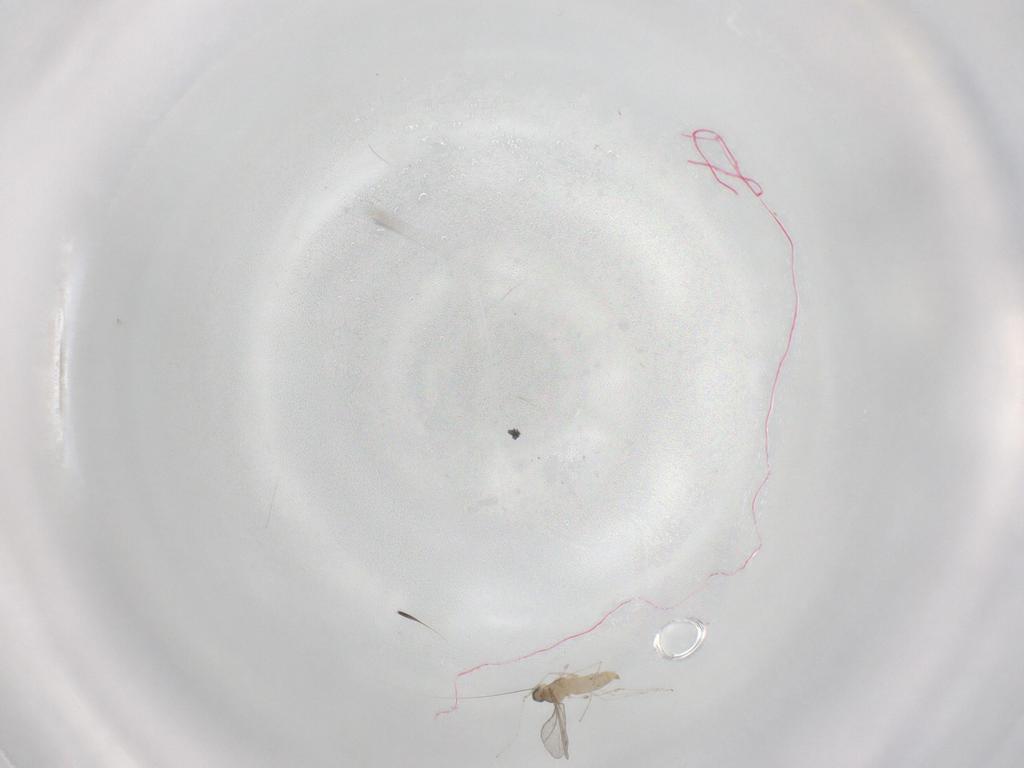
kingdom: Animalia
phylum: Arthropoda
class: Insecta
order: Diptera
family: Cecidomyiidae
